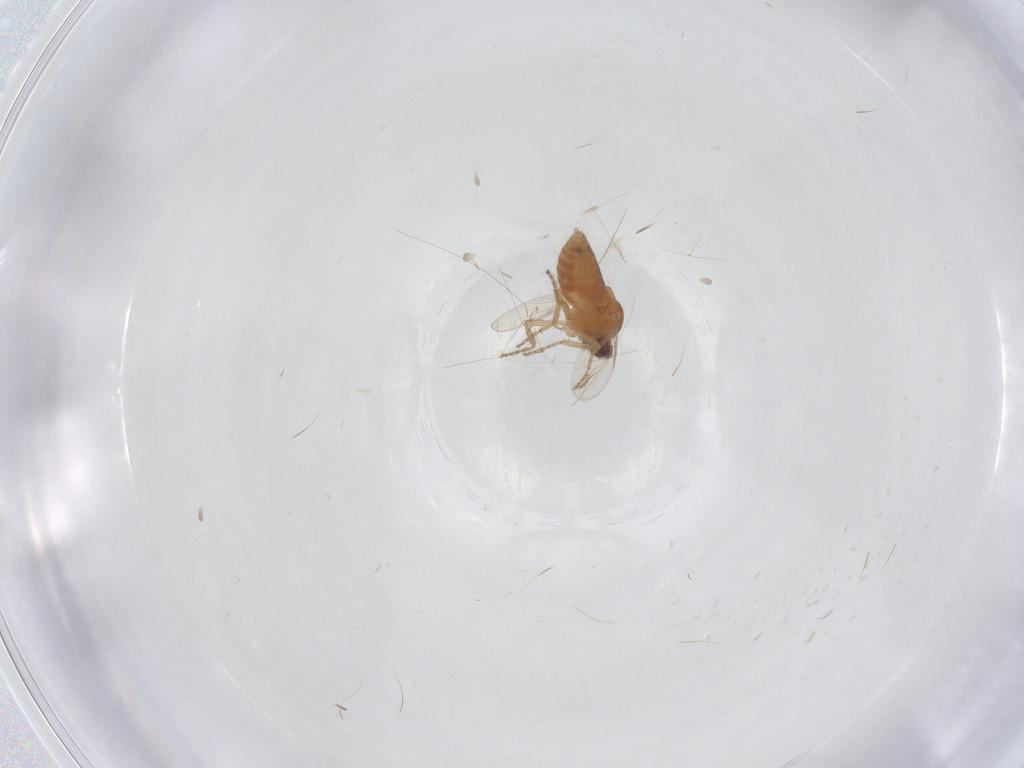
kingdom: Animalia
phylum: Arthropoda
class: Insecta
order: Diptera
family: Ceratopogonidae
